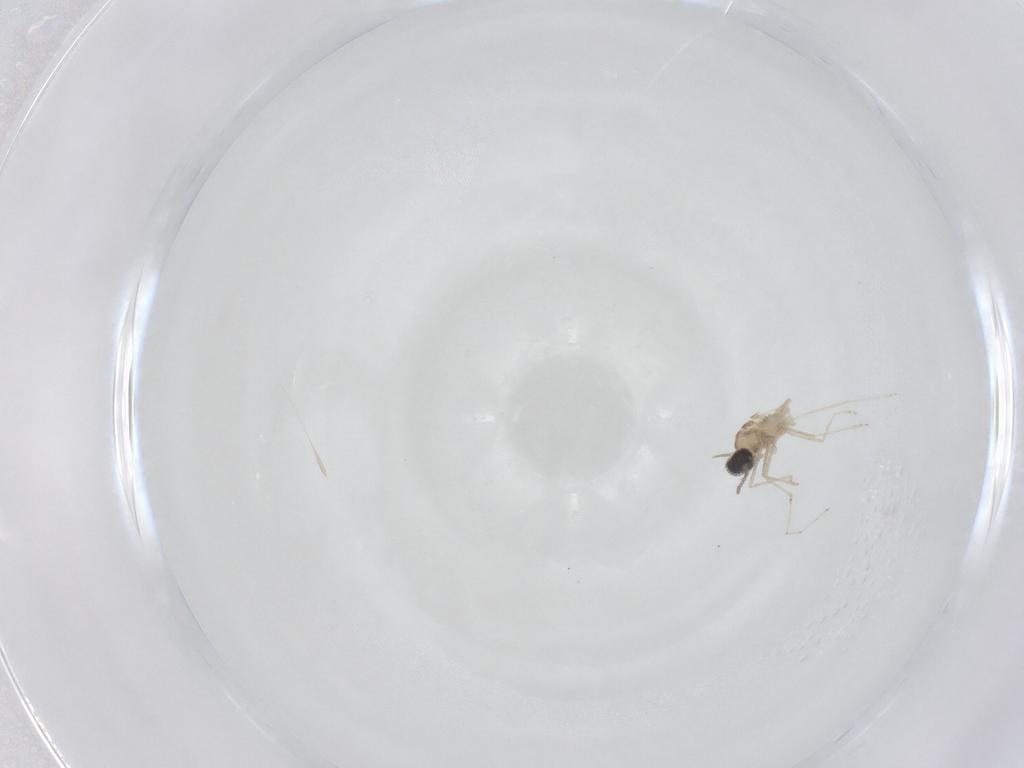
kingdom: Animalia
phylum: Arthropoda
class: Insecta
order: Diptera
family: Cecidomyiidae
